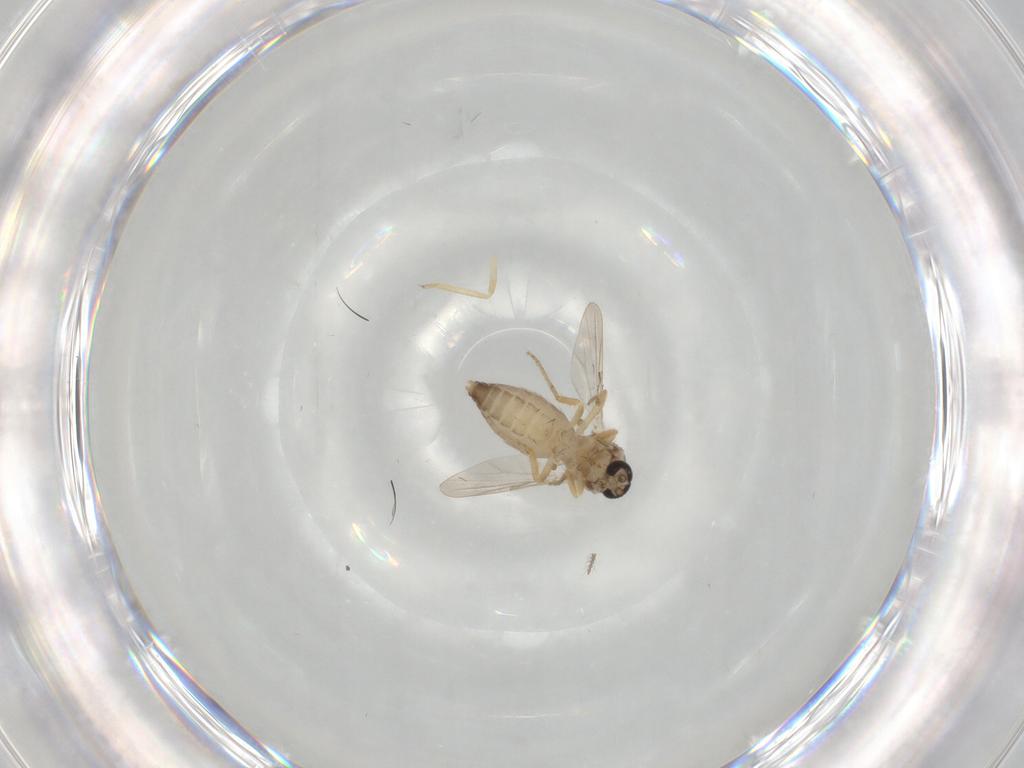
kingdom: Animalia
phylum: Arthropoda
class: Insecta
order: Diptera
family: Ceratopogonidae
